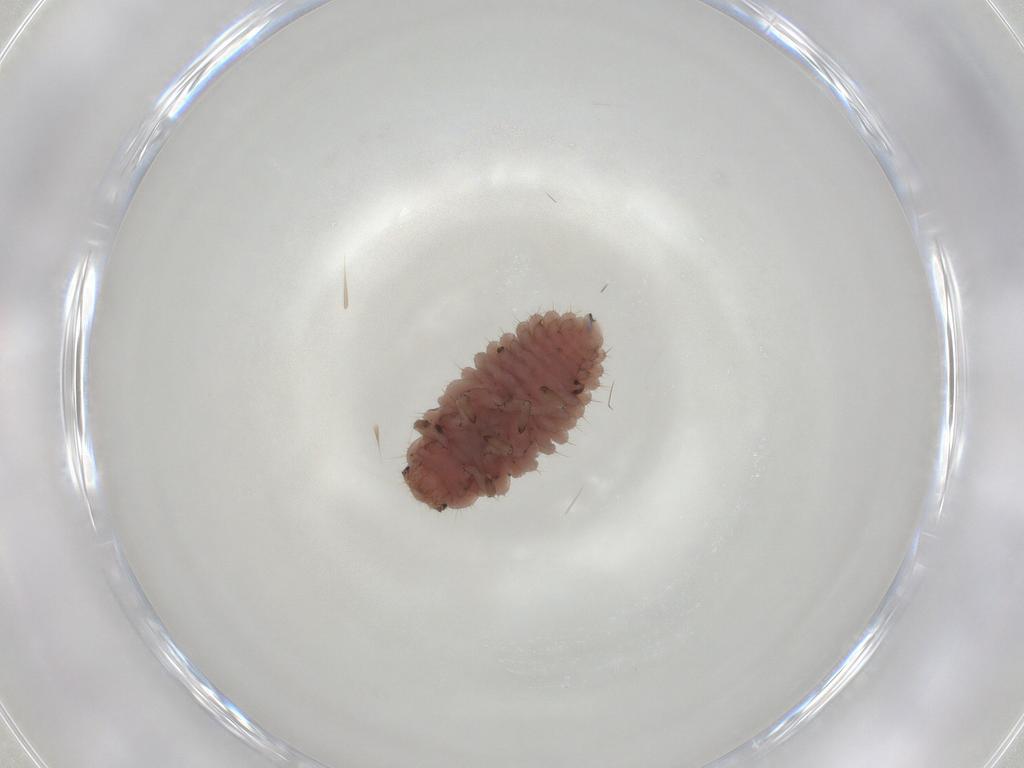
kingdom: Animalia
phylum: Arthropoda
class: Insecta
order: Coleoptera
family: Coccinellidae
